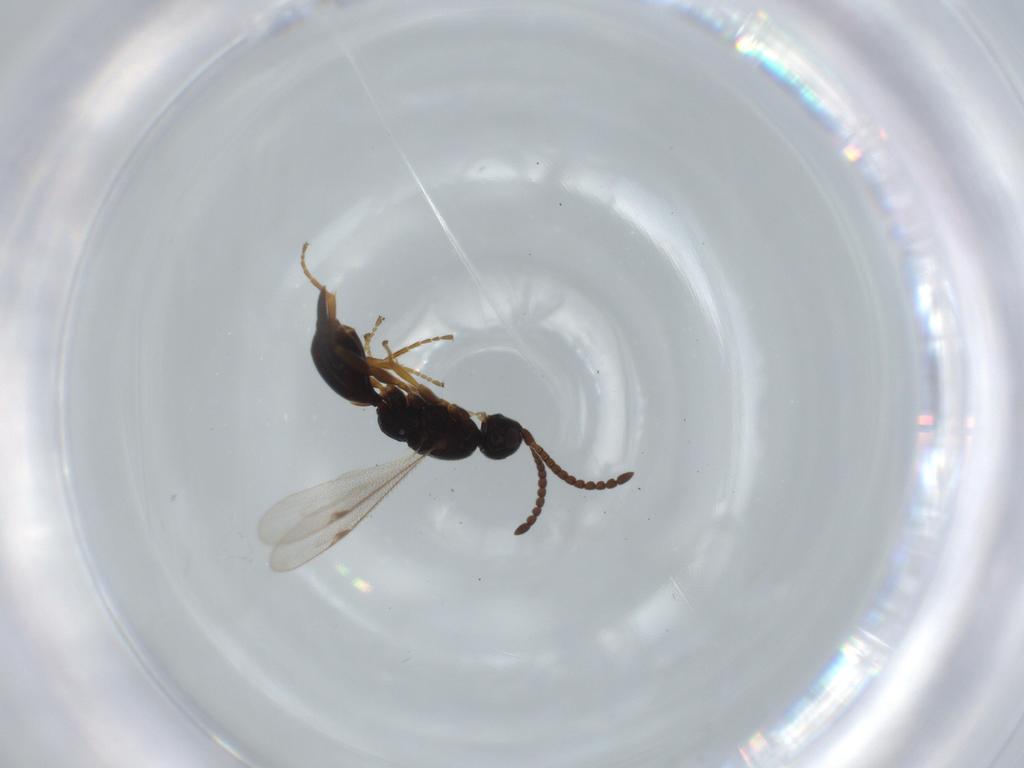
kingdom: Animalia
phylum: Arthropoda
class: Insecta
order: Hymenoptera
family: Proctotrupidae
